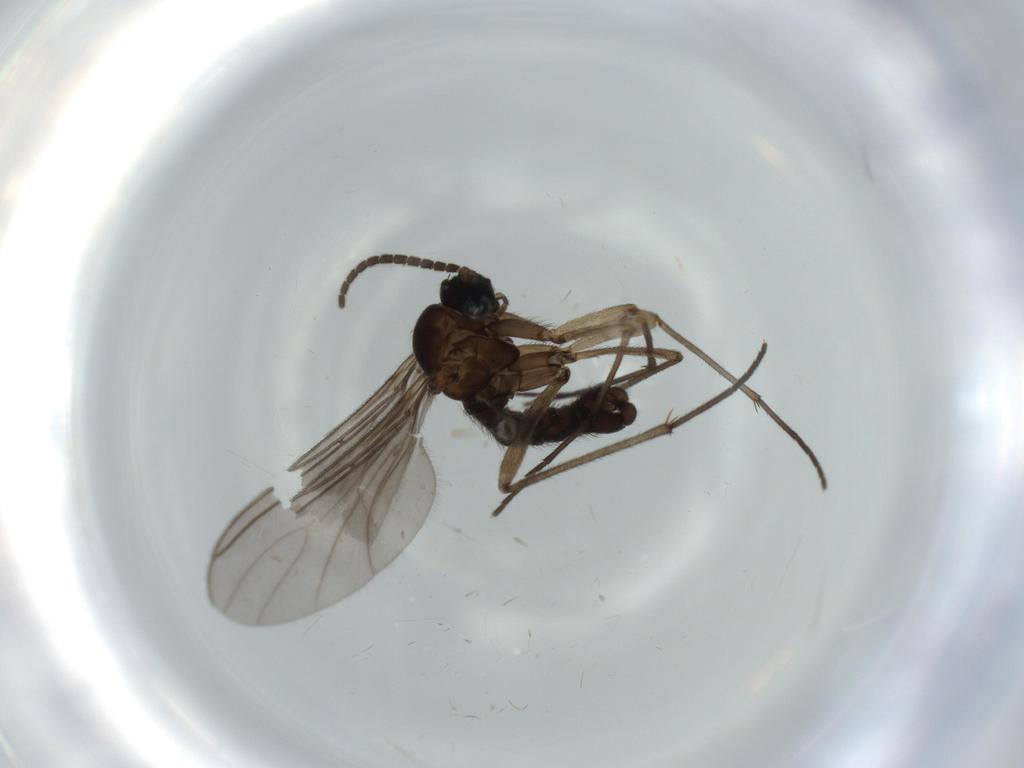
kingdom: Animalia
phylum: Arthropoda
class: Insecta
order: Diptera
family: Sciaridae
